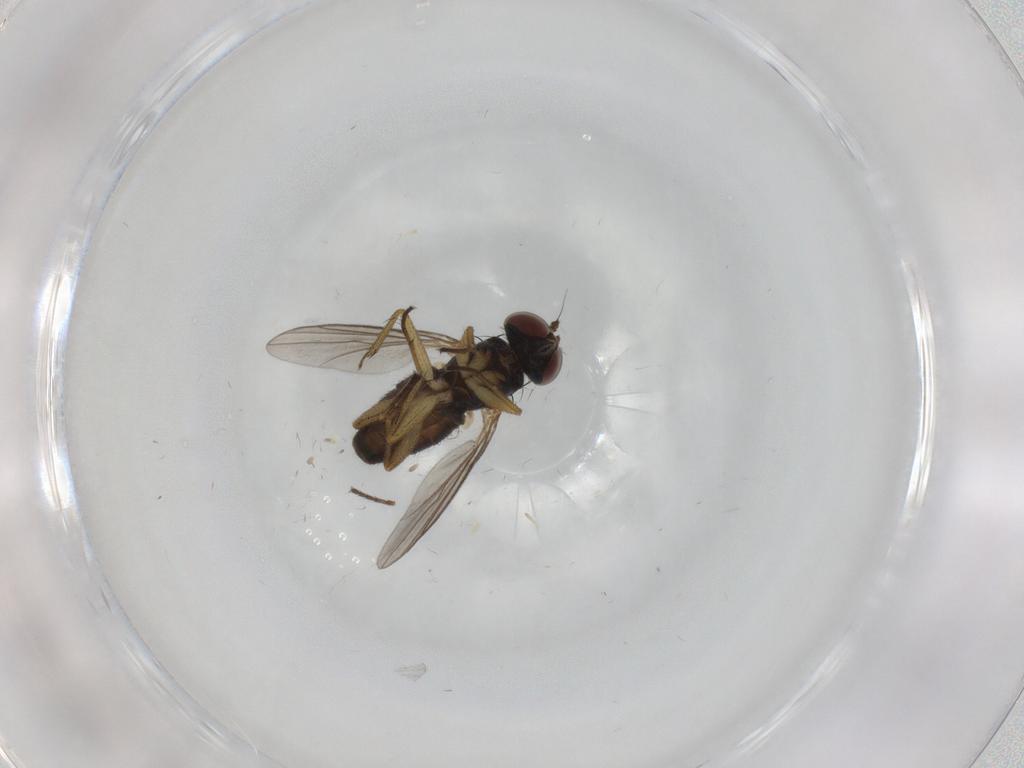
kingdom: Animalia
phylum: Arthropoda
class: Insecta
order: Diptera
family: Dolichopodidae
